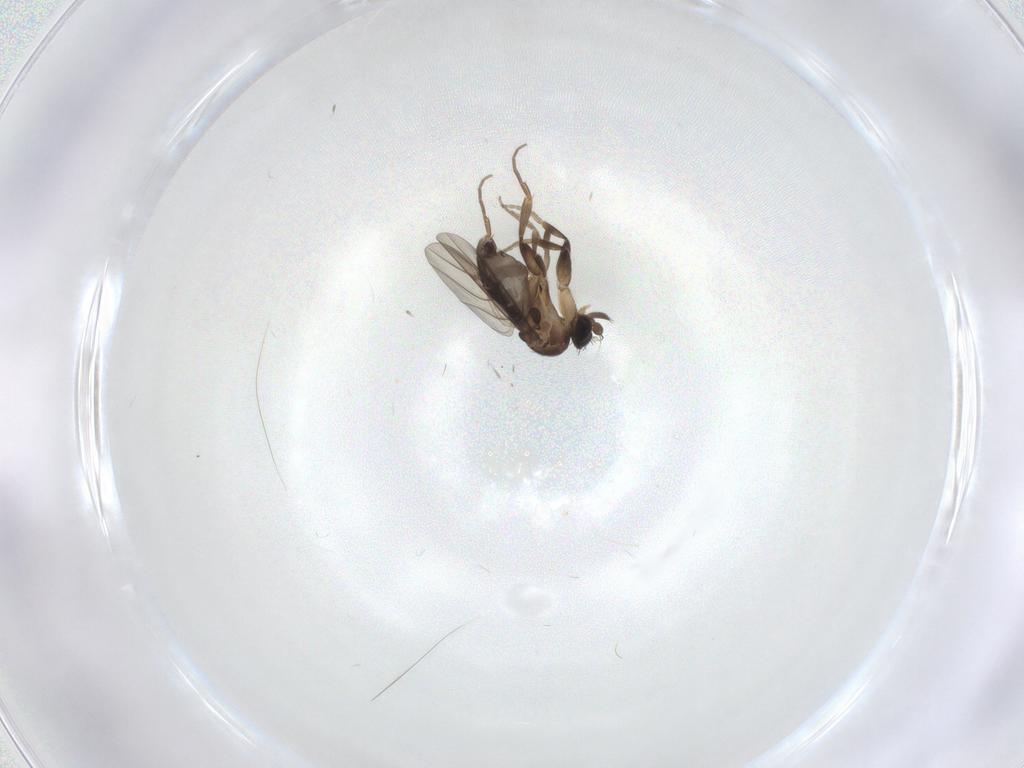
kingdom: Animalia
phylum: Arthropoda
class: Insecta
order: Diptera
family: Phoridae
